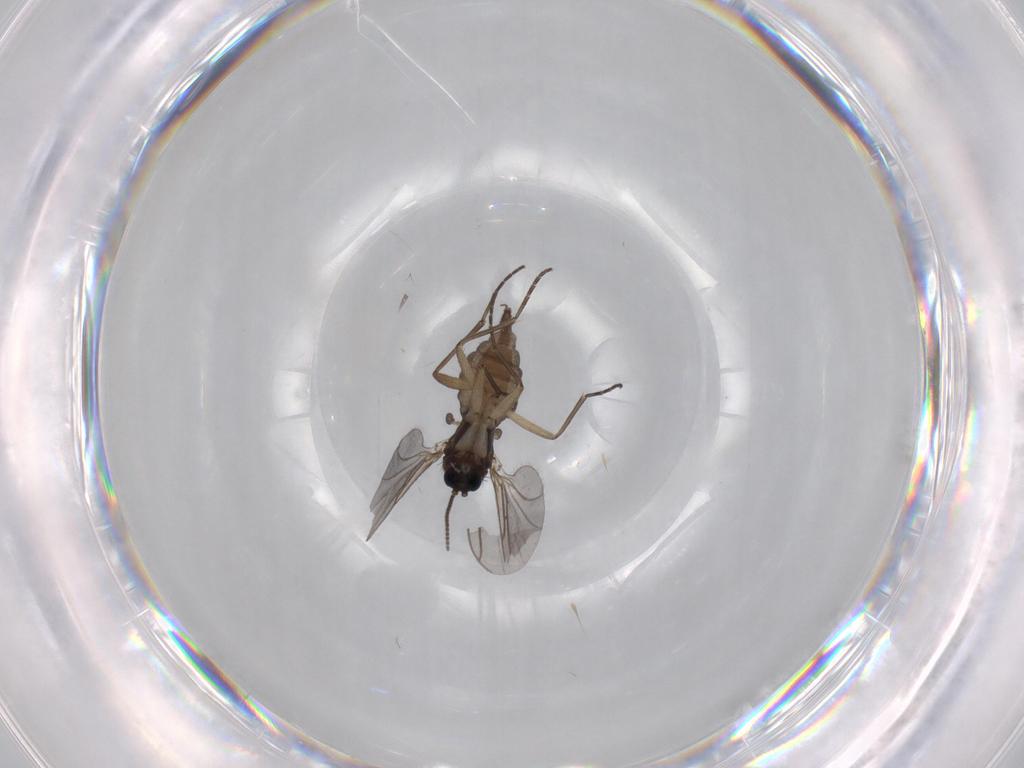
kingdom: Animalia
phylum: Arthropoda
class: Insecta
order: Diptera
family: Sciaridae
